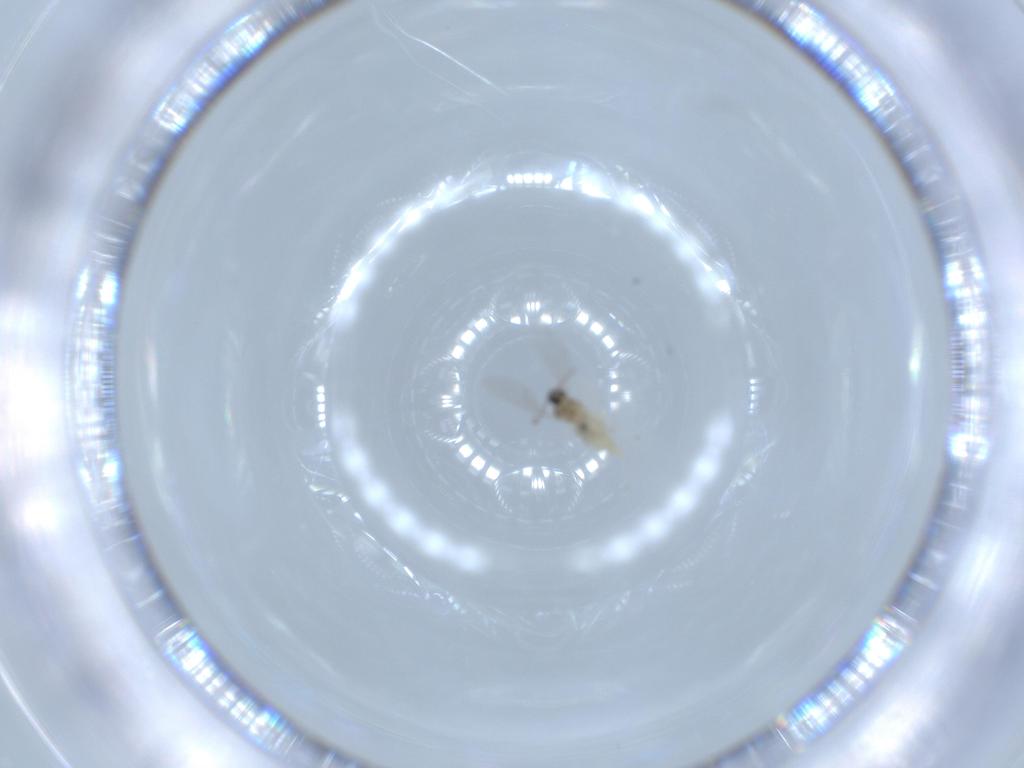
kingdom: Animalia
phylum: Arthropoda
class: Insecta
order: Diptera
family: Cecidomyiidae
